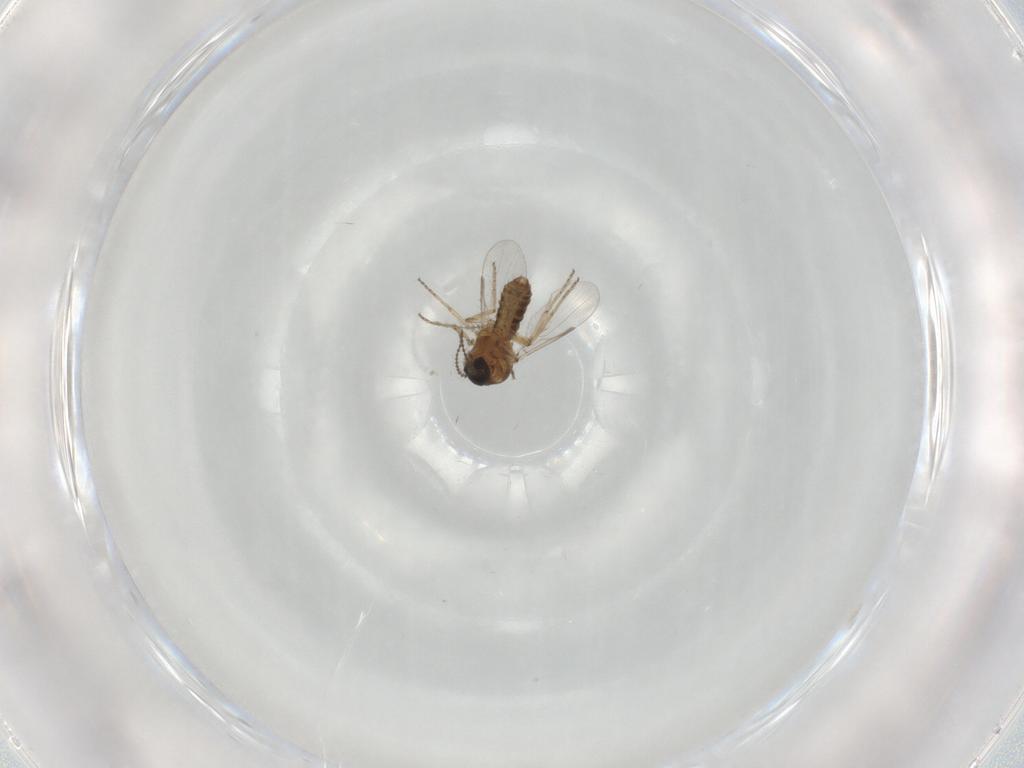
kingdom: Animalia
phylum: Arthropoda
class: Insecta
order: Diptera
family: Ceratopogonidae
